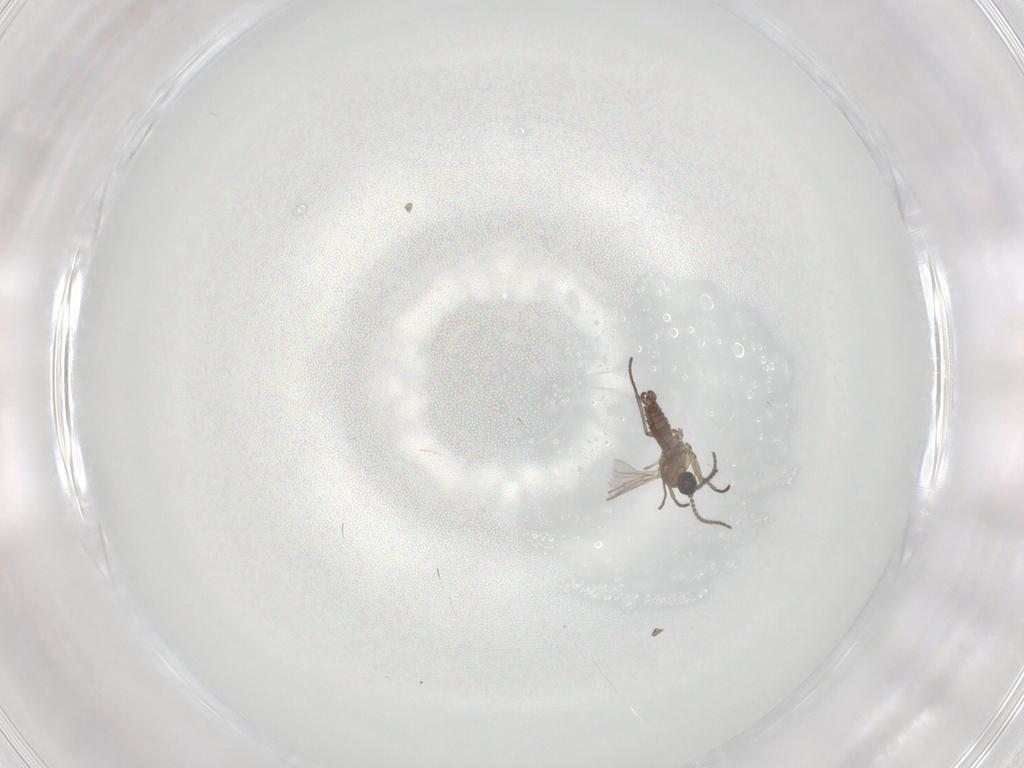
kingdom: Animalia
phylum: Arthropoda
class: Insecta
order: Diptera
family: Sciaridae
